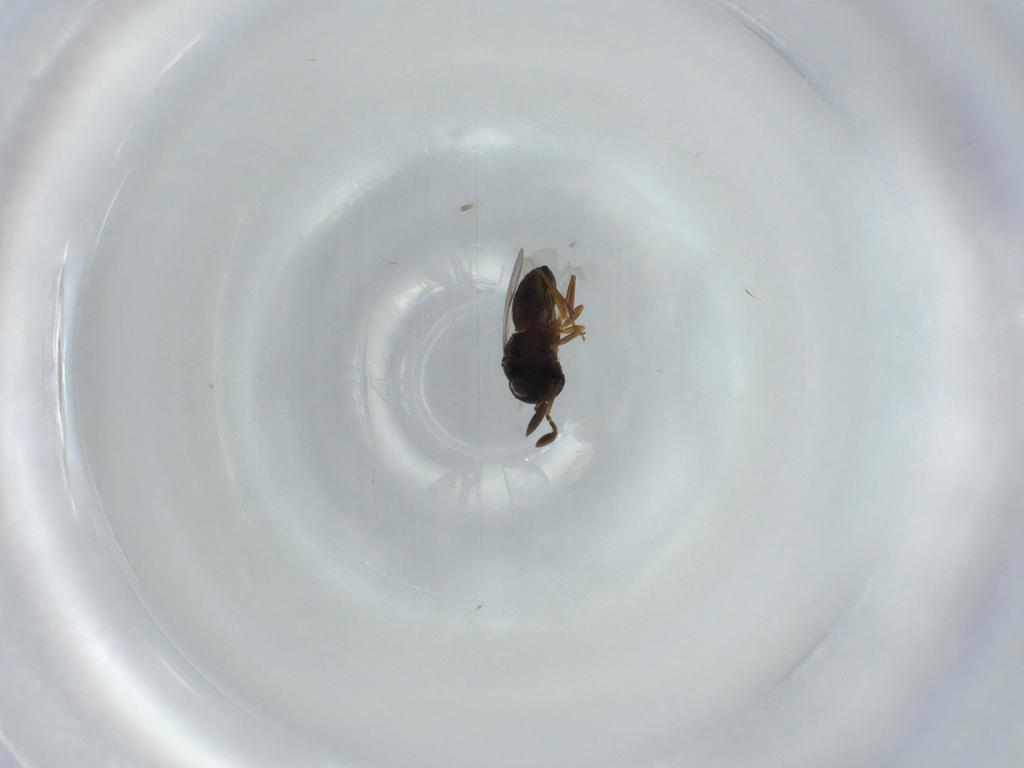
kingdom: Animalia
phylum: Arthropoda
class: Insecta
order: Hymenoptera
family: Scelionidae
